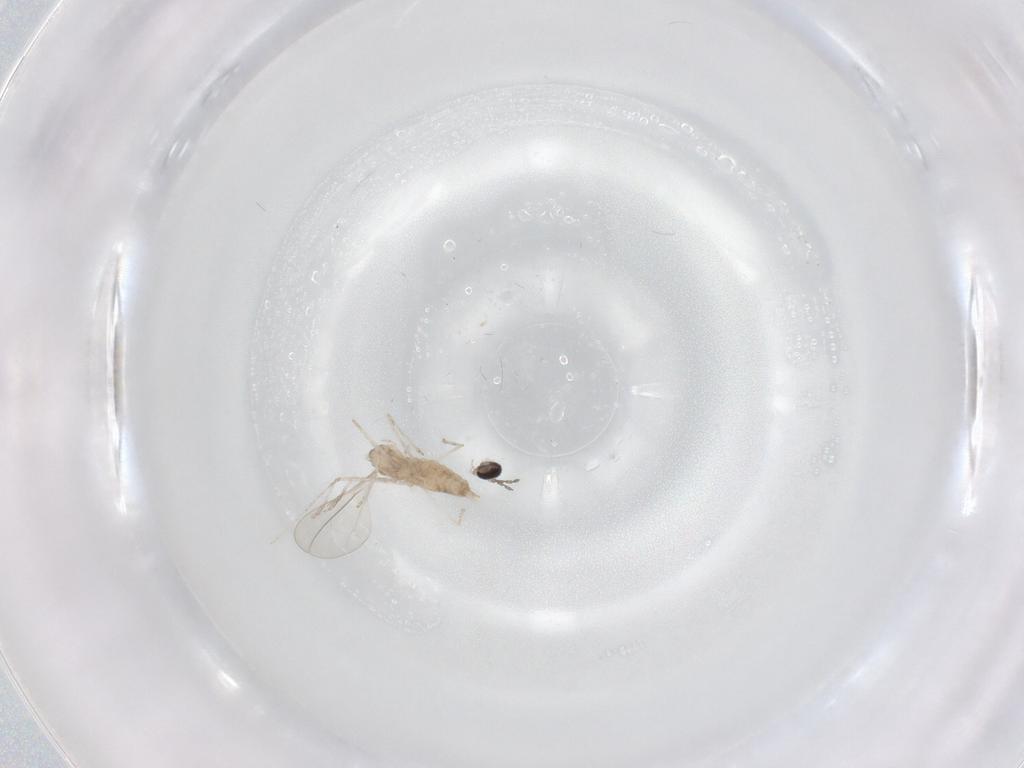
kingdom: Animalia
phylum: Arthropoda
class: Insecta
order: Diptera
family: Cecidomyiidae
